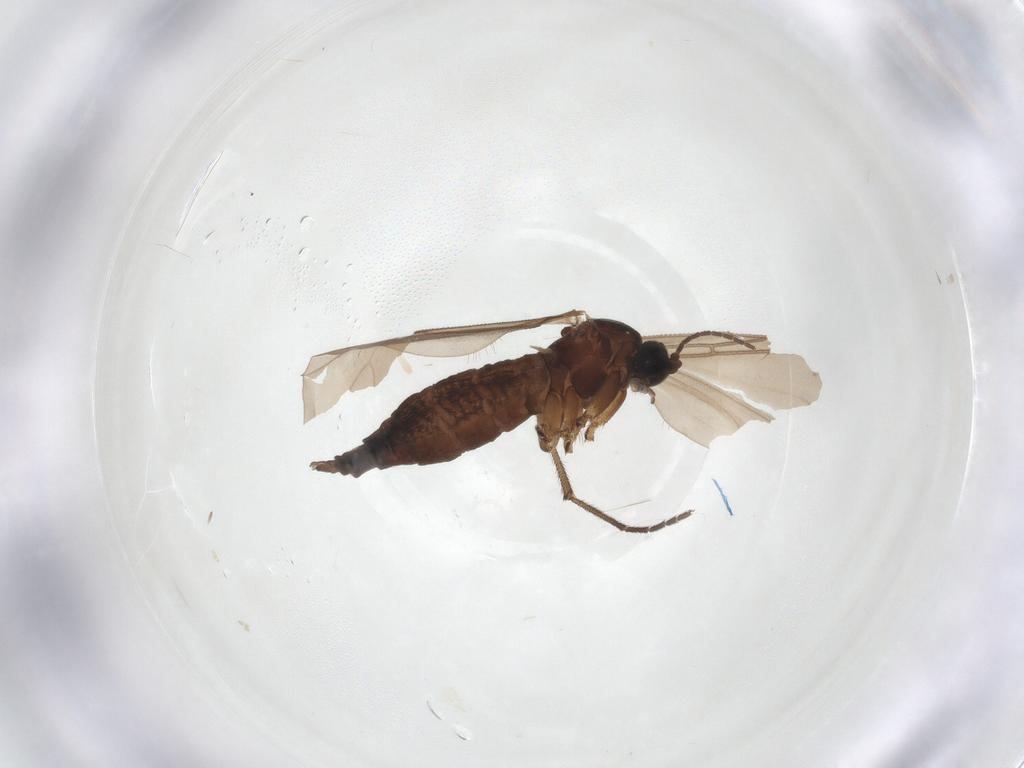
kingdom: Animalia
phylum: Arthropoda
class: Insecta
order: Diptera
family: Sciaridae
